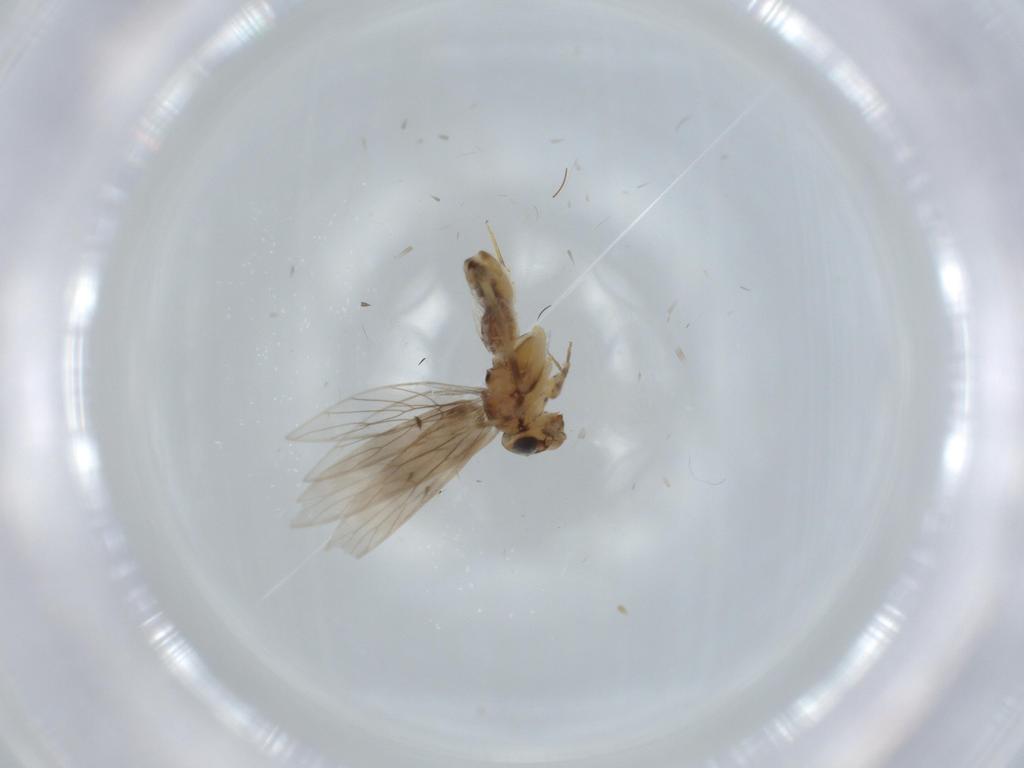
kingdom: Animalia
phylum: Arthropoda
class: Insecta
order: Psocodea
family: Lepidopsocidae
